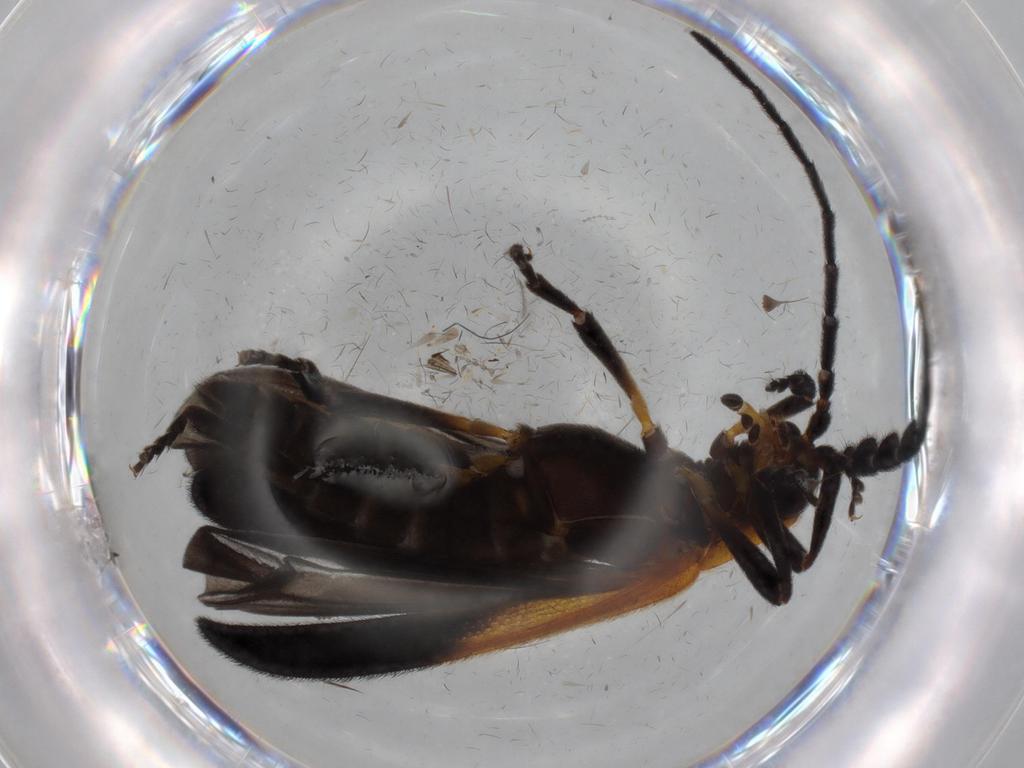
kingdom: Animalia
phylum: Arthropoda
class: Insecta
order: Coleoptera
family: Lycidae
